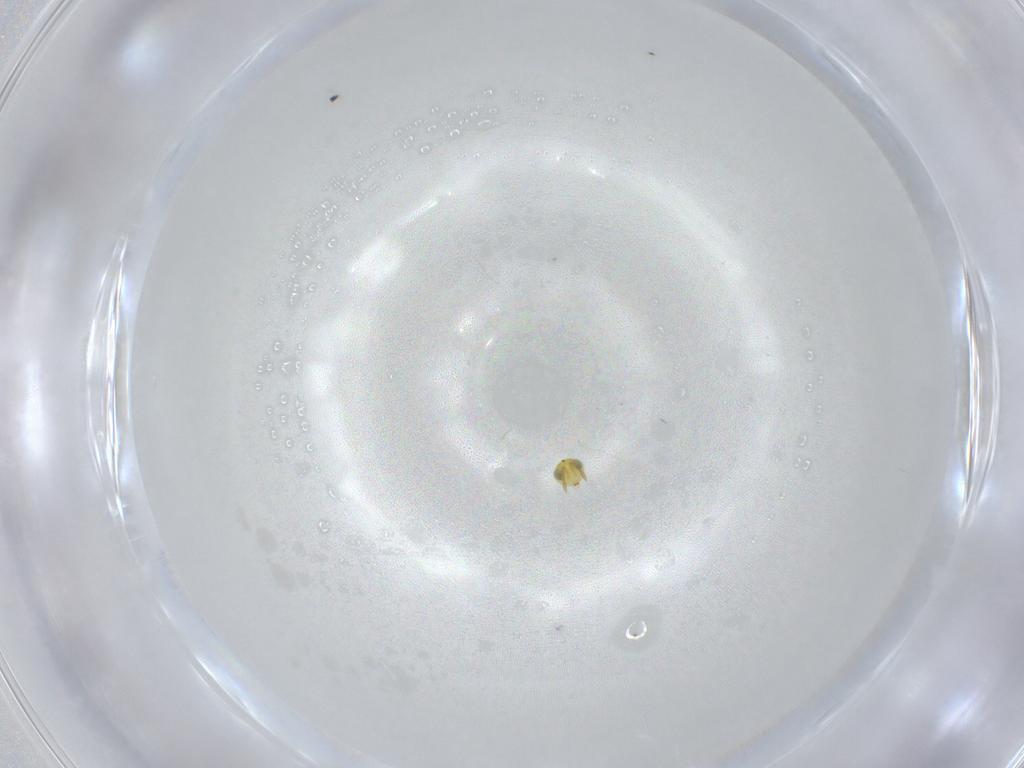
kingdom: Animalia
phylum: Arthropoda
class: Insecta
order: Hymenoptera
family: Aphelinidae
